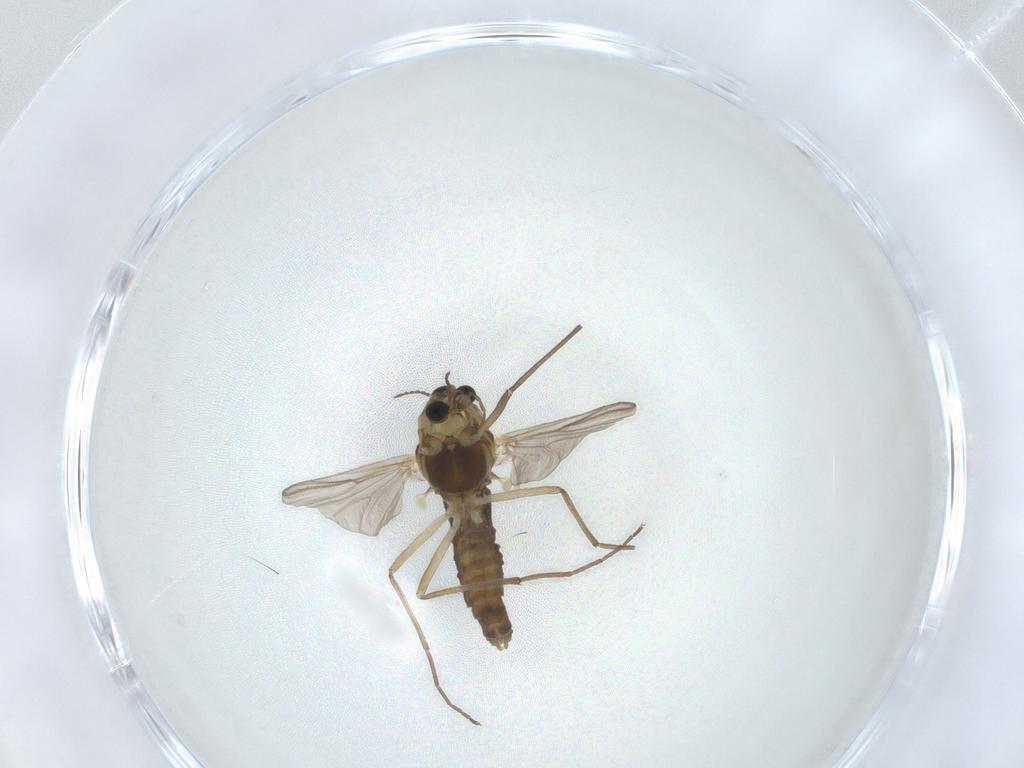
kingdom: Animalia
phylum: Arthropoda
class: Insecta
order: Diptera
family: Chironomidae
